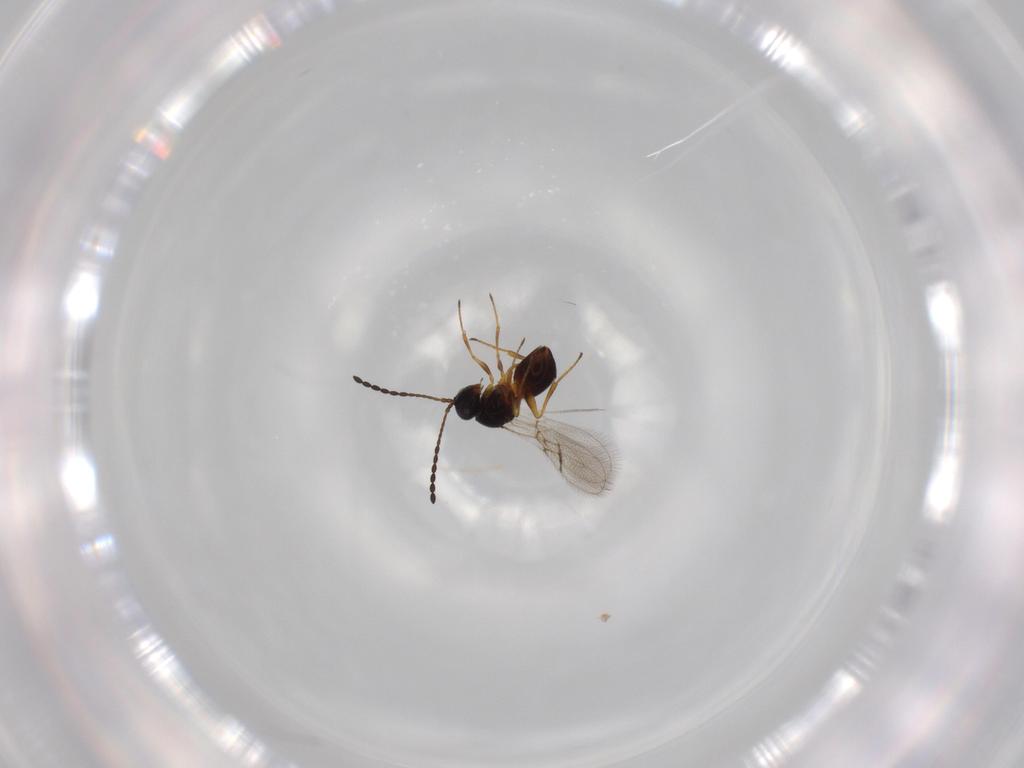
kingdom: Animalia
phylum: Arthropoda
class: Insecta
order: Hymenoptera
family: Figitidae
